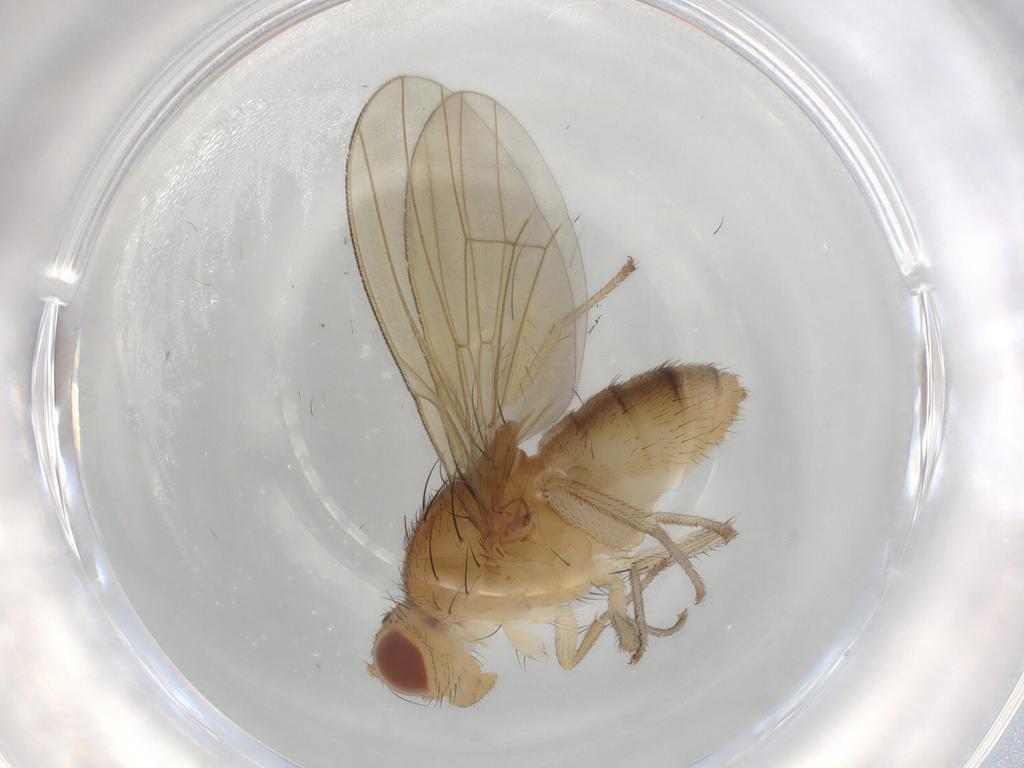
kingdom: Animalia
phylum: Arthropoda
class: Insecta
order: Diptera
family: Lauxaniidae
